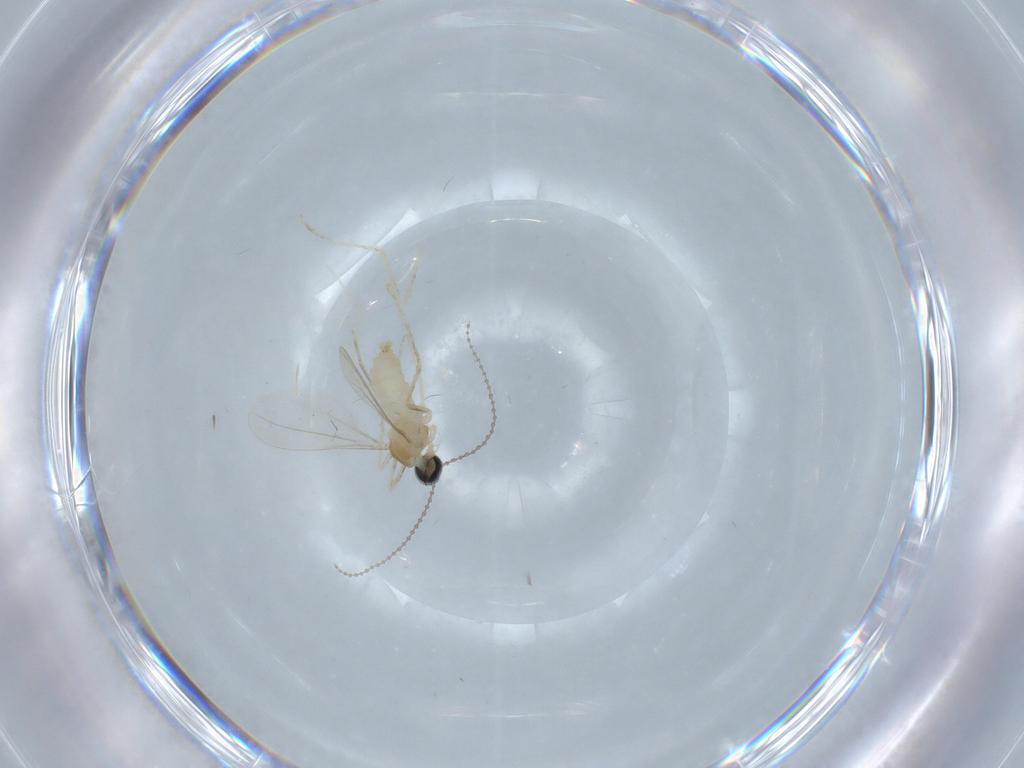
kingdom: Animalia
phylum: Arthropoda
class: Insecta
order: Diptera
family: Cecidomyiidae
